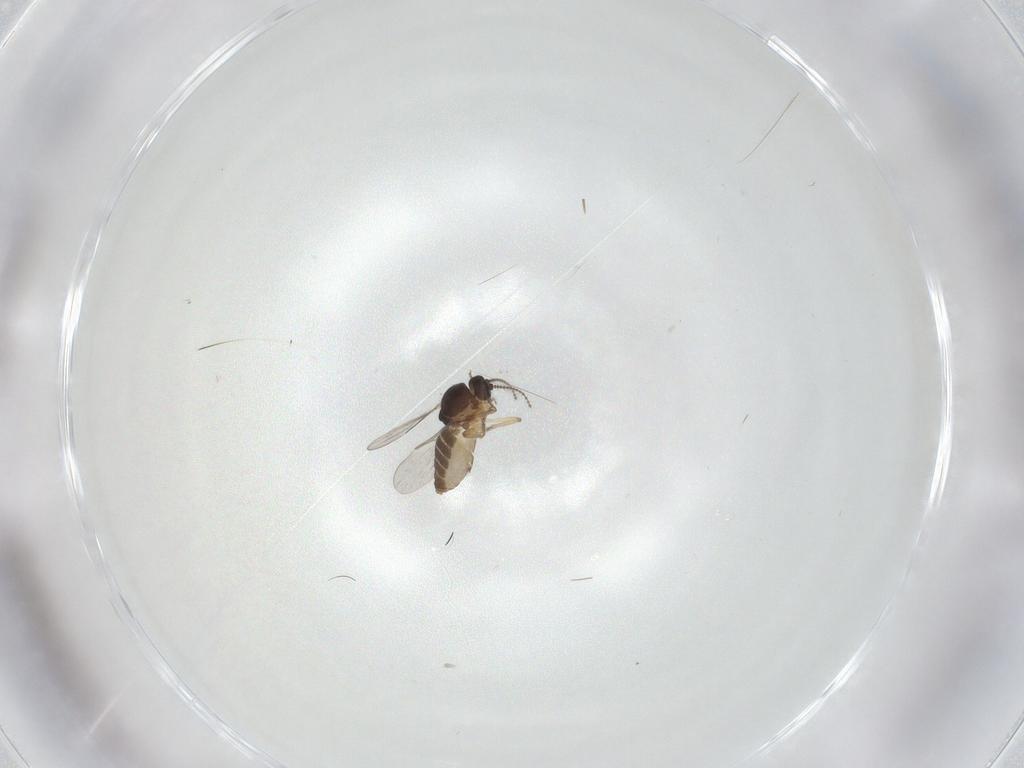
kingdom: Animalia
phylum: Arthropoda
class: Insecta
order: Diptera
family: Ceratopogonidae
